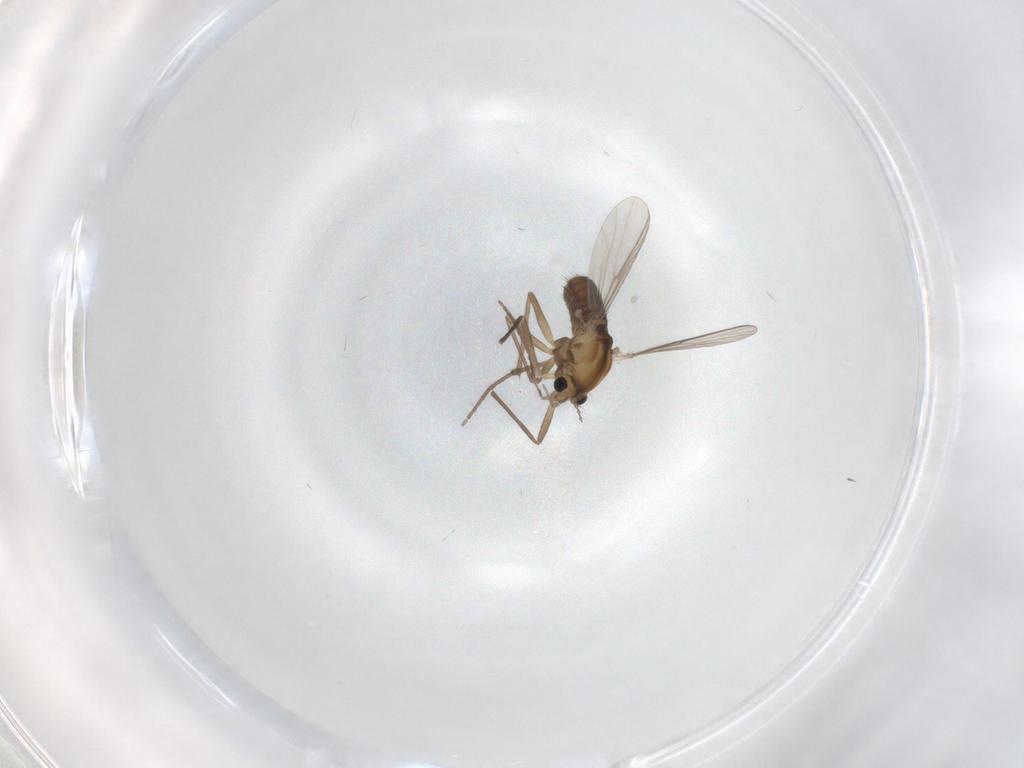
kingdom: Animalia
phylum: Arthropoda
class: Insecta
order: Diptera
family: Chironomidae
